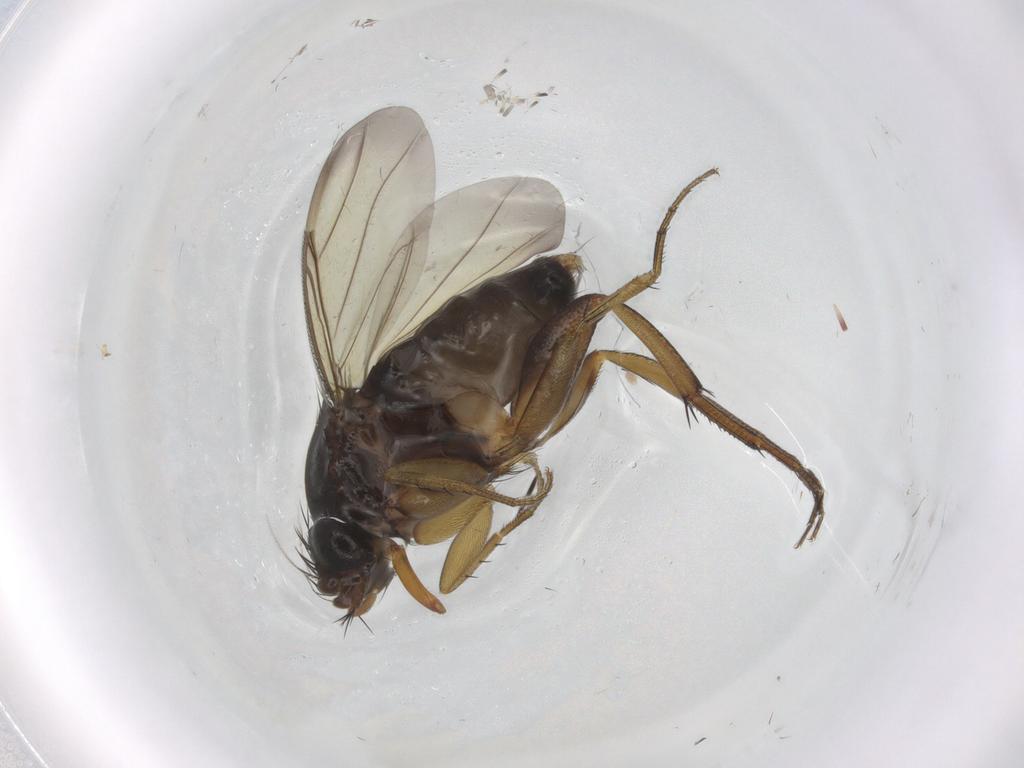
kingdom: Animalia
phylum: Arthropoda
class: Insecta
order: Diptera
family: Phoridae
